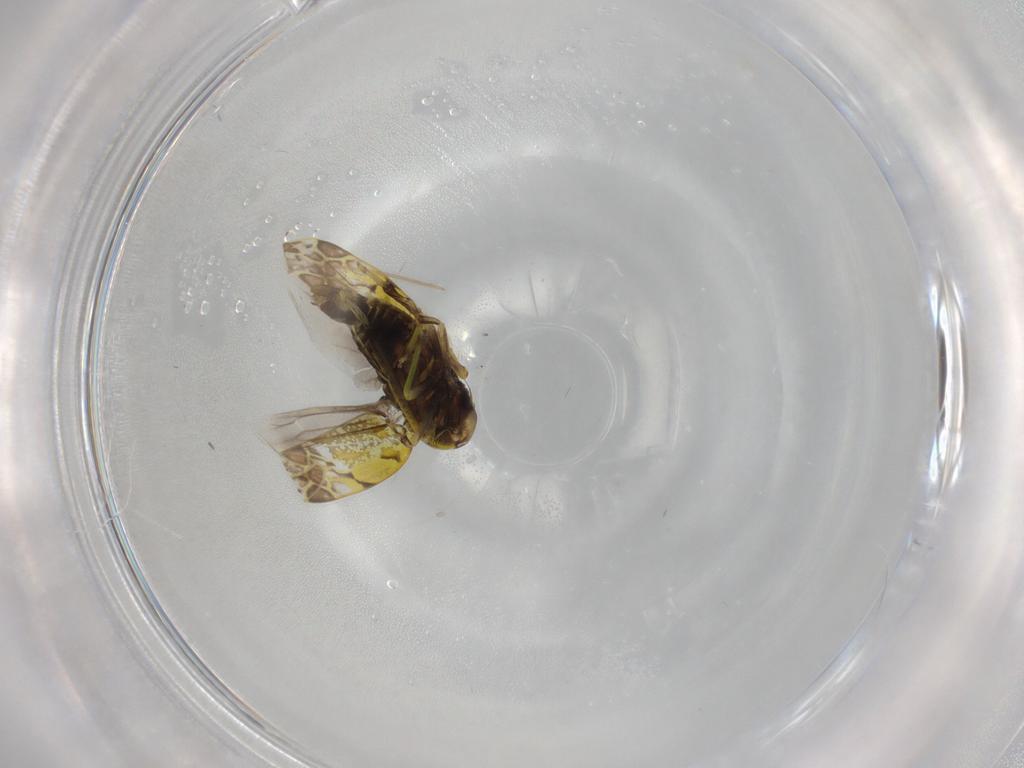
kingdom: Animalia
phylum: Arthropoda
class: Insecta
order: Hemiptera
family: Cicadellidae
